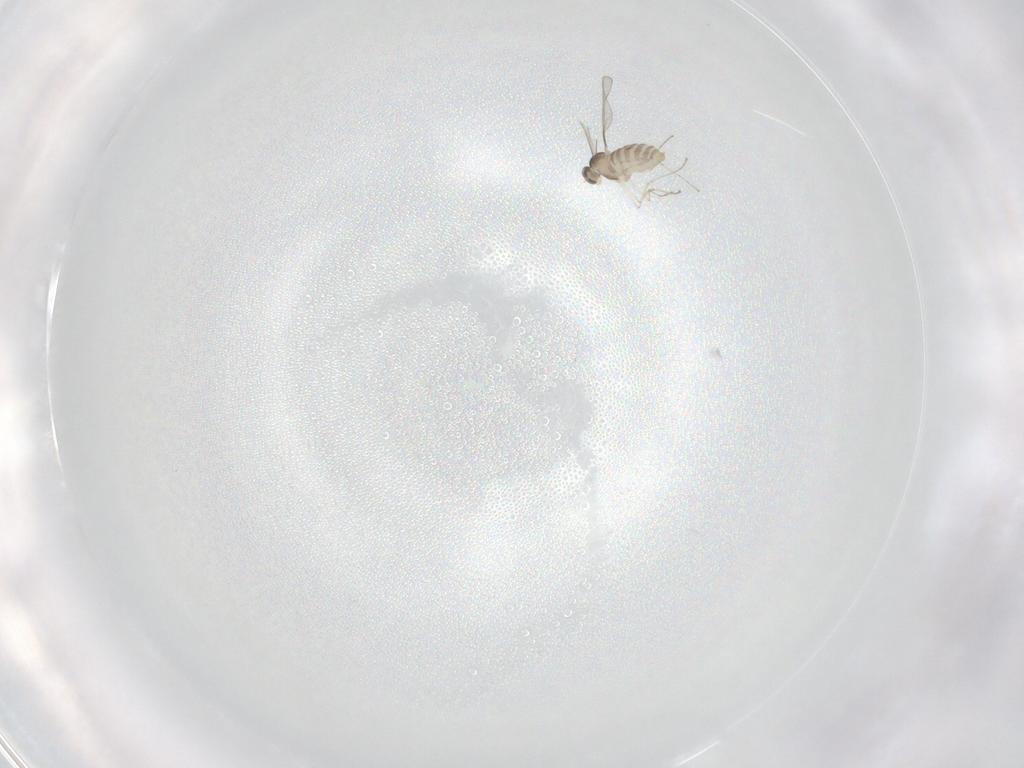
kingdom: Animalia
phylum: Arthropoda
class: Insecta
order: Diptera
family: Cecidomyiidae
